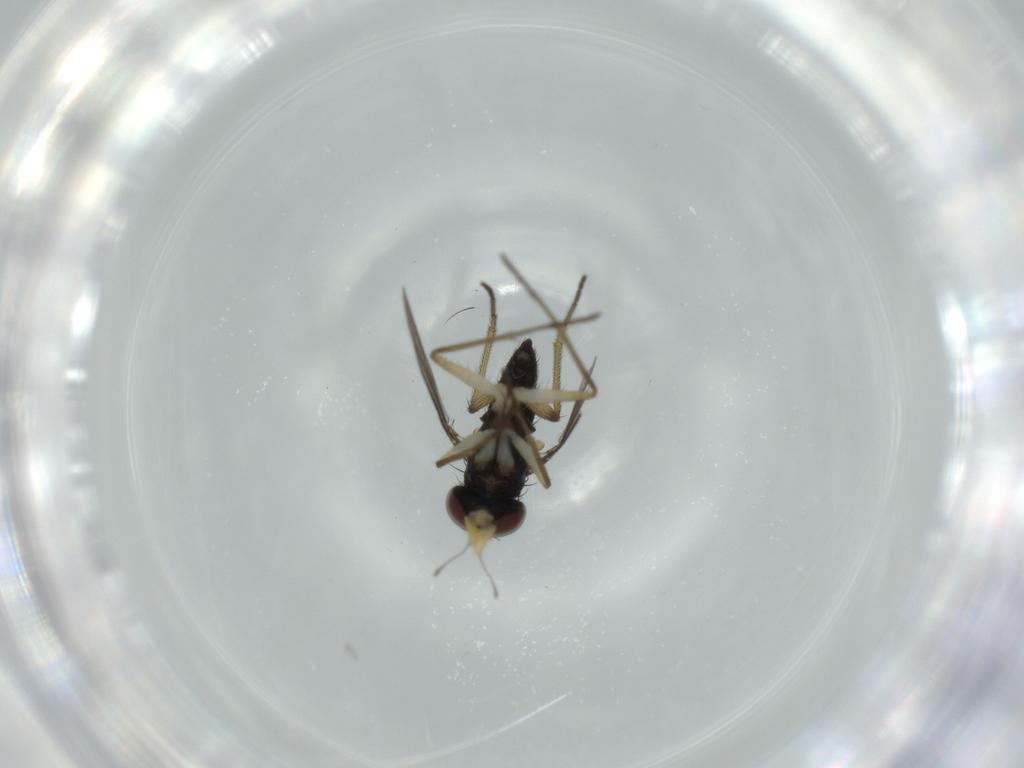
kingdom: Animalia
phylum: Arthropoda
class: Insecta
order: Diptera
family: Dolichopodidae
